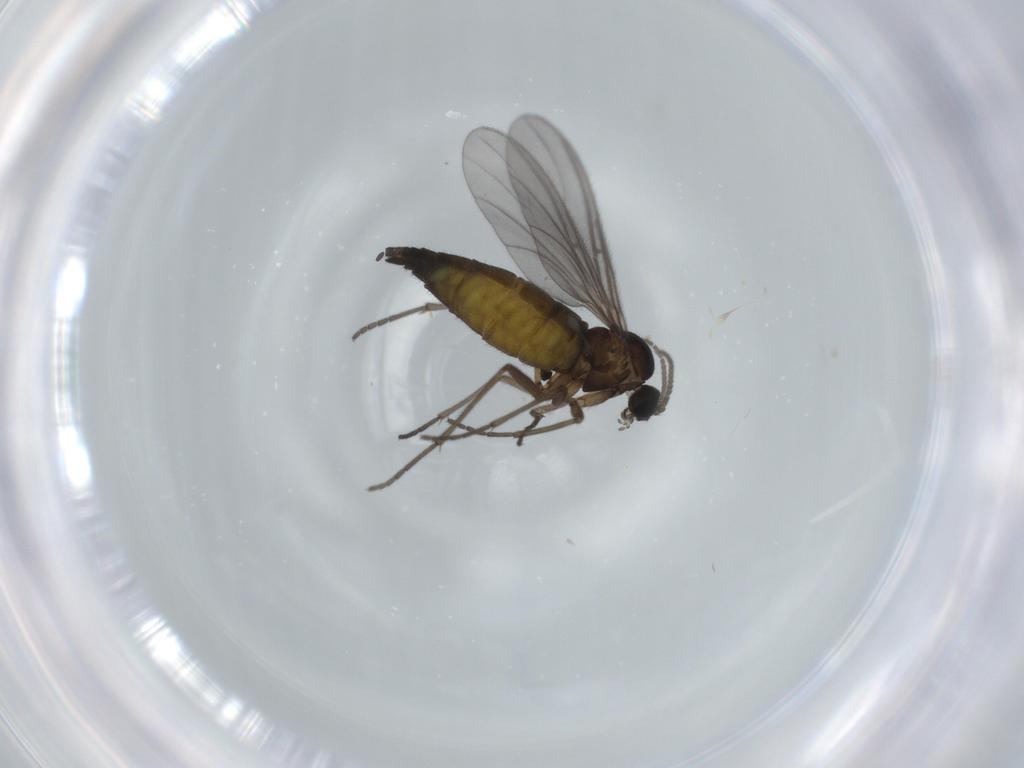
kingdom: Animalia
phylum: Arthropoda
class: Insecta
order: Diptera
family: Sciaridae
